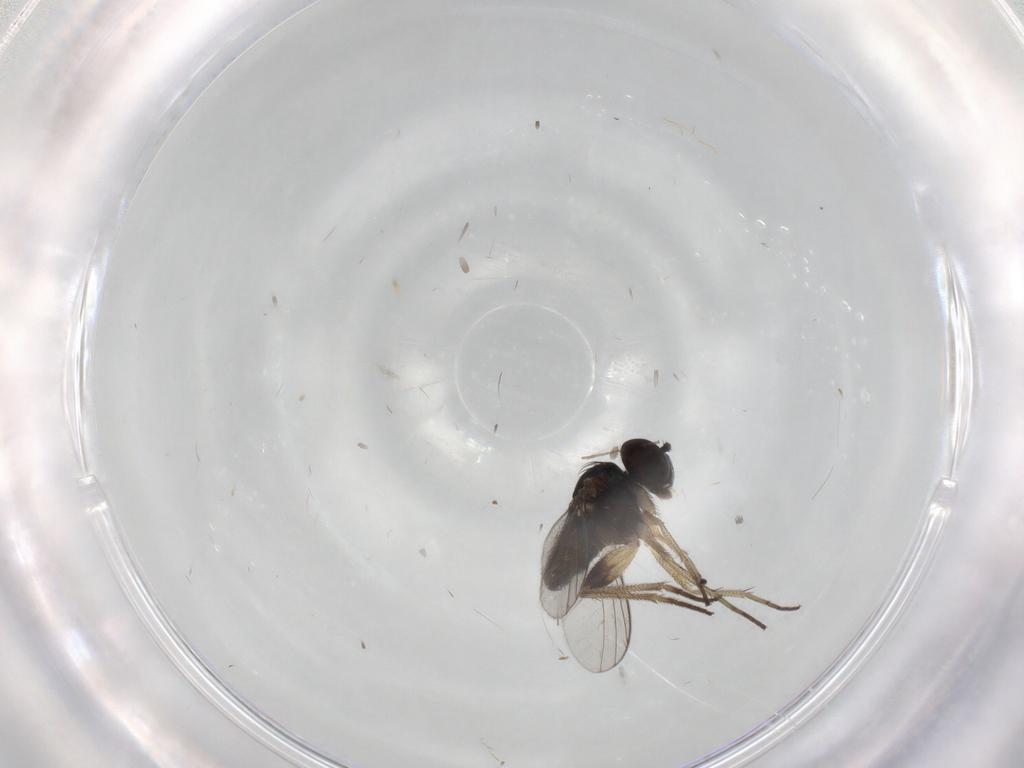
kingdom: Animalia
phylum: Arthropoda
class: Insecta
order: Diptera
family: Dolichopodidae
